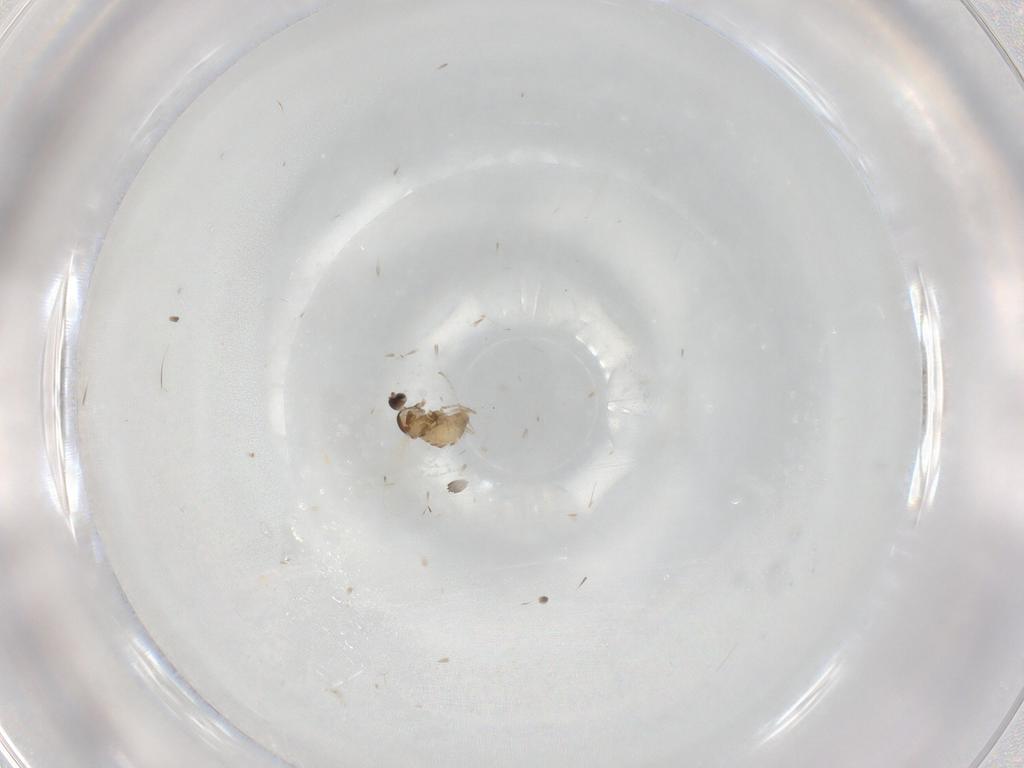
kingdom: Animalia
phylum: Arthropoda
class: Insecta
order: Diptera
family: Cecidomyiidae
